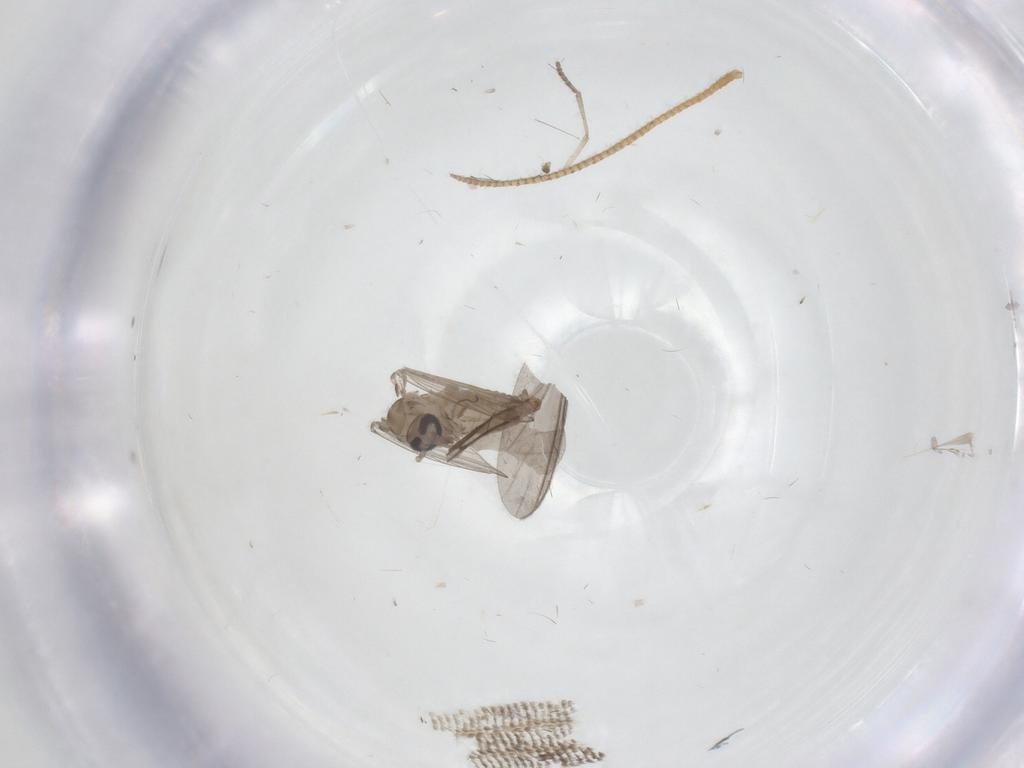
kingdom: Animalia
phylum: Arthropoda
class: Insecta
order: Diptera
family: Psychodidae
